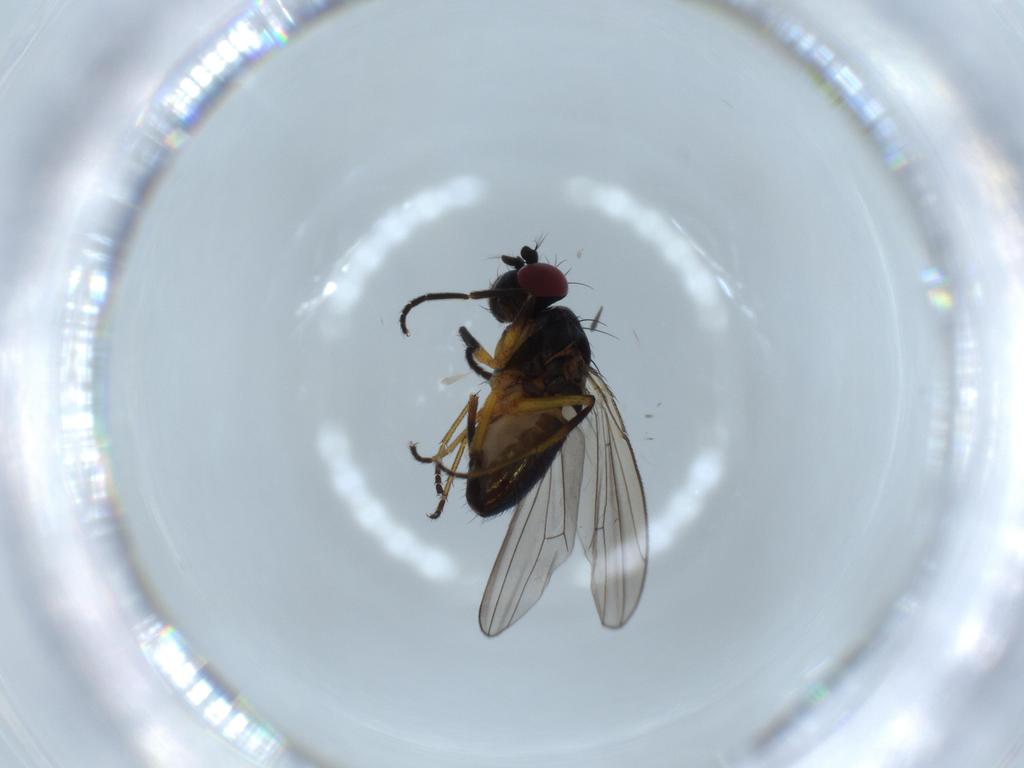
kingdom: Animalia
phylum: Arthropoda
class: Insecta
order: Diptera
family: Ephydridae
